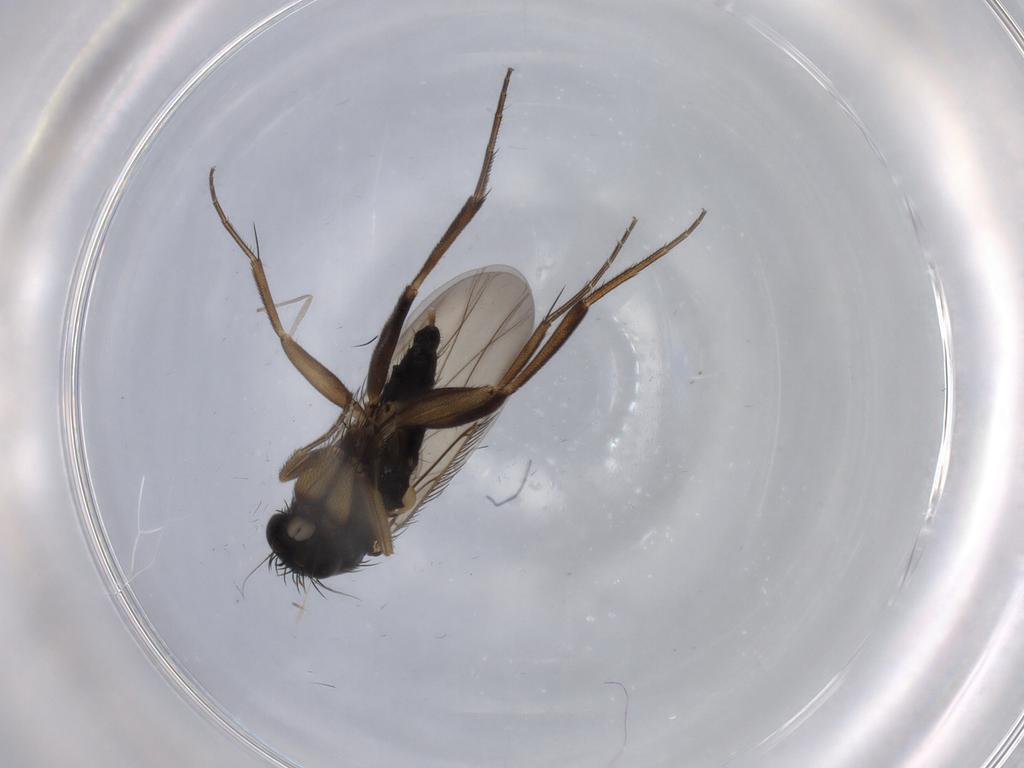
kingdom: Animalia
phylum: Arthropoda
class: Insecta
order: Diptera
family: Phoridae
